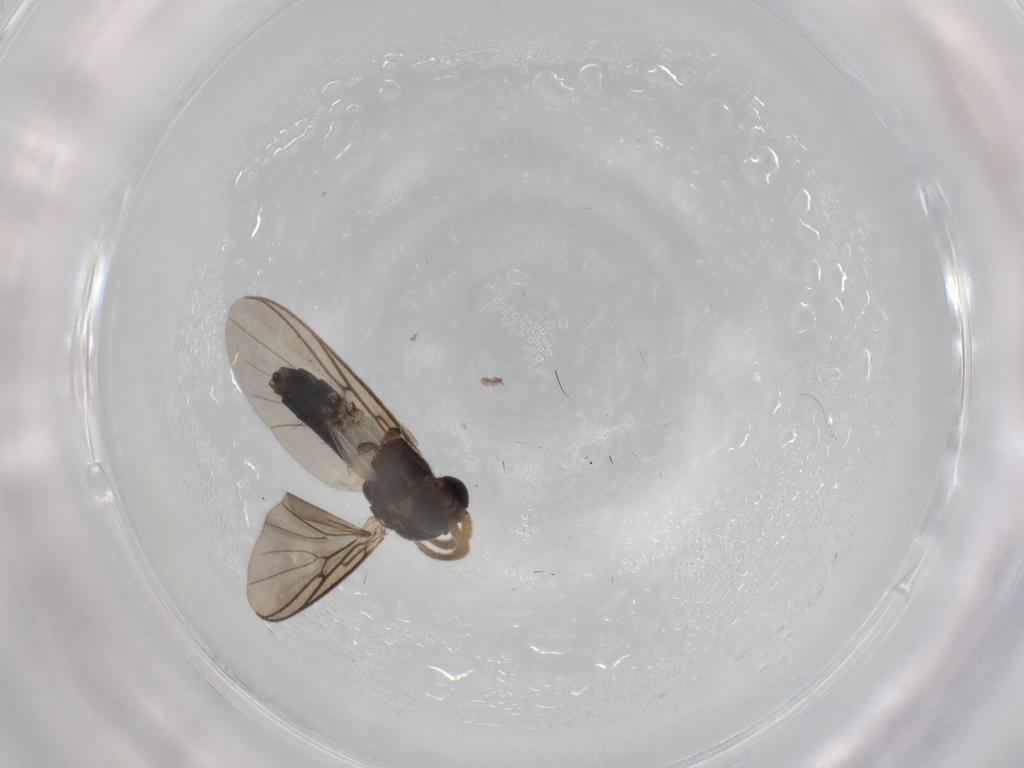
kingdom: Animalia
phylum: Arthropoda
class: Insecta
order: Diptera
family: Mycetophilidae
